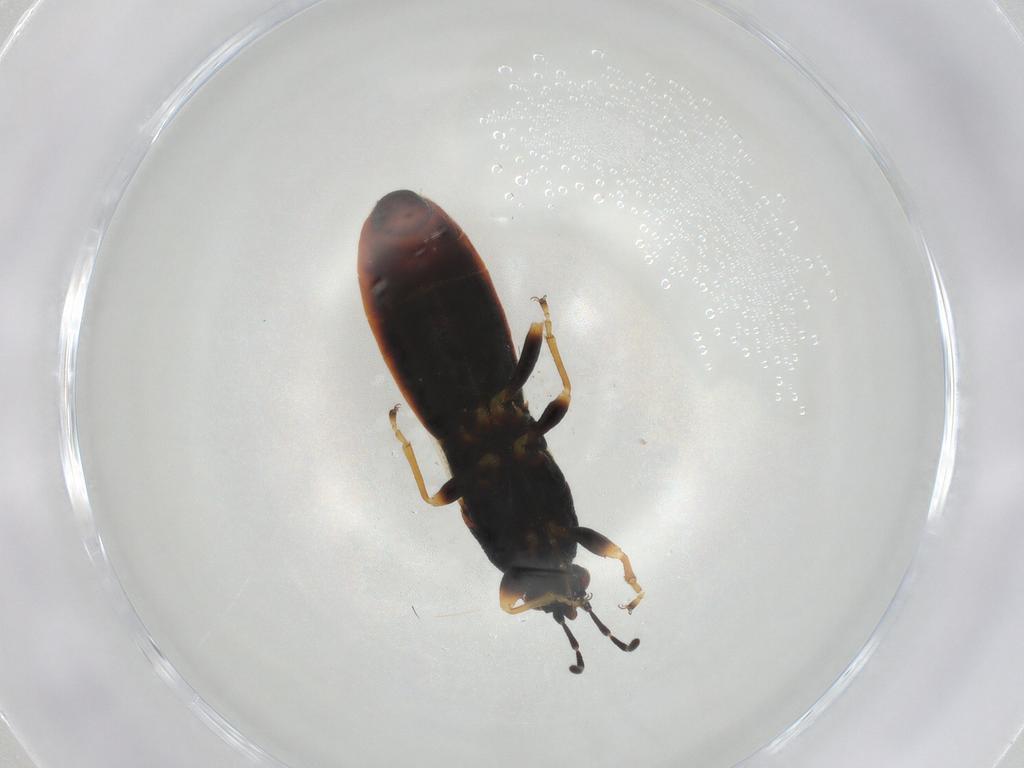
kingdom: Animalia
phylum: Arthropoda
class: Insecta
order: Hemiptera
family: Blissidae
